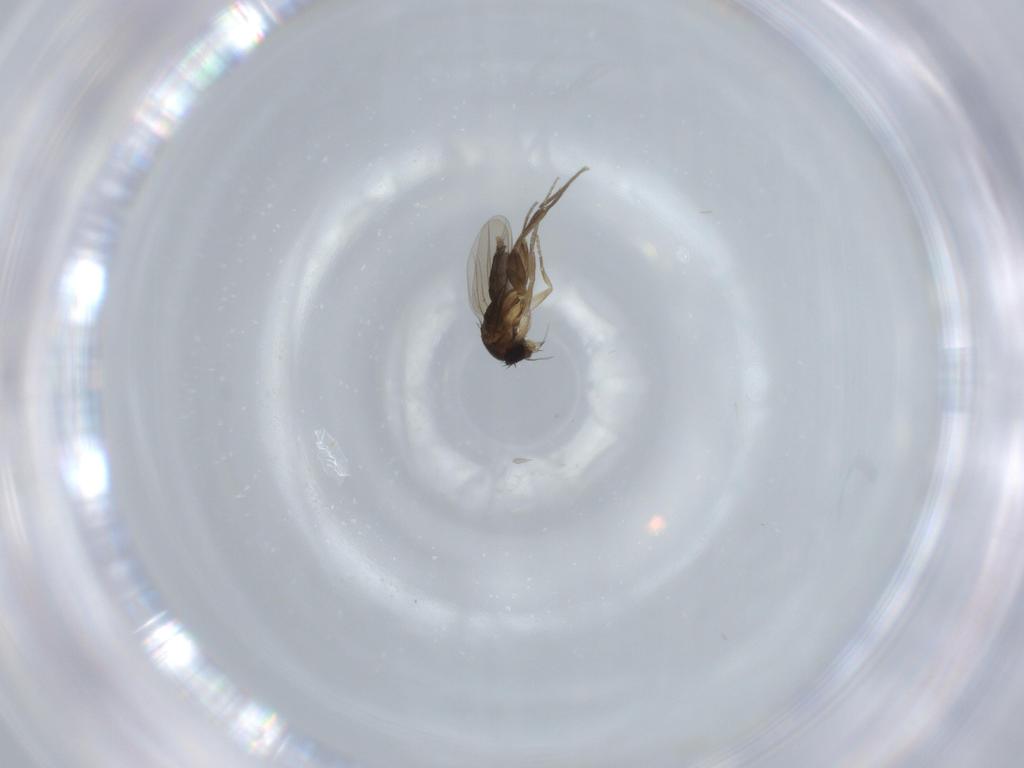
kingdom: Animalia
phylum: Arthropoda
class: Insecta
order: Diptera
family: Phoridae
